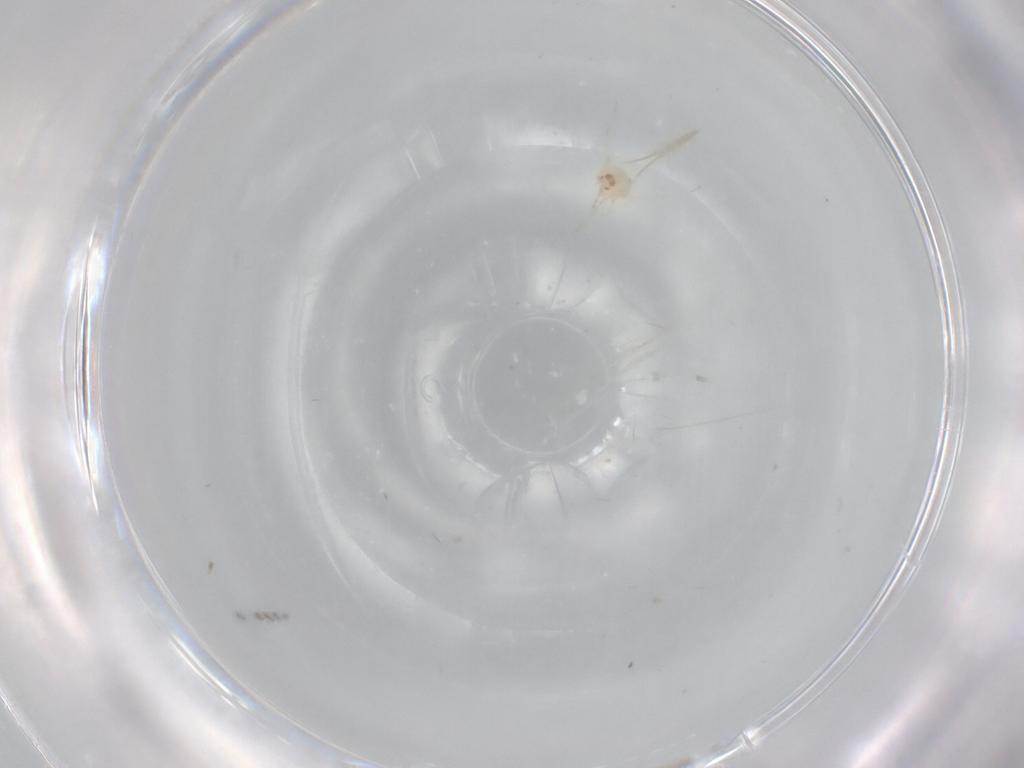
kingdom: Animalia
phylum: Arthropoda
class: Insecta
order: Diptera
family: Cecidomyiidae
